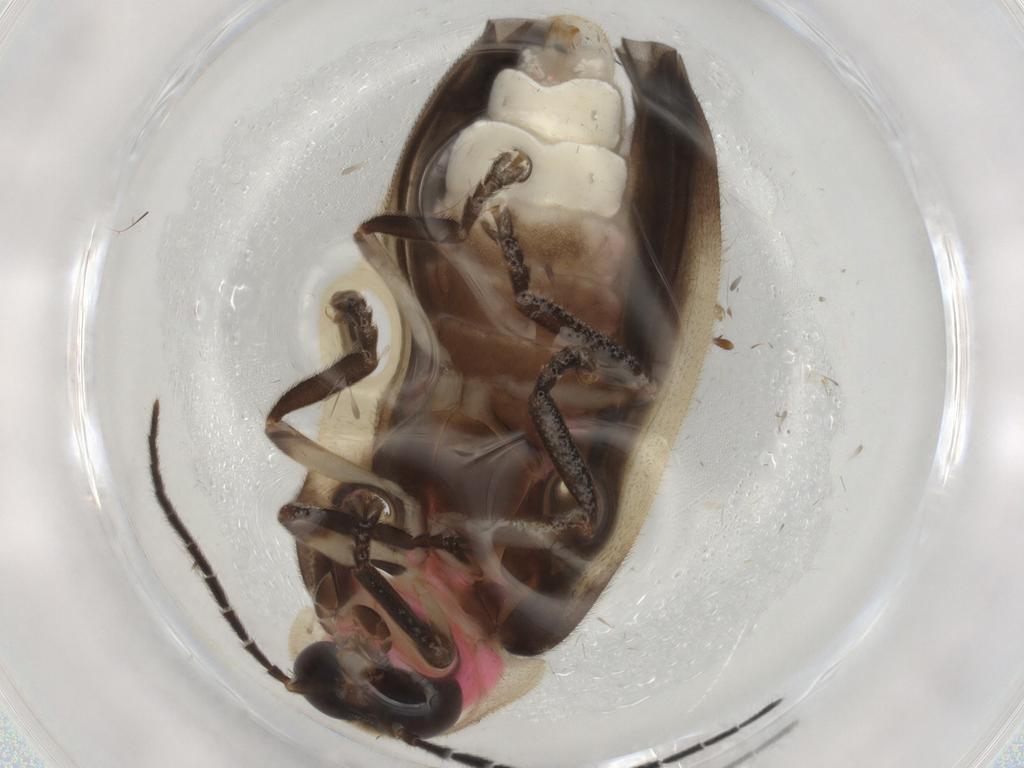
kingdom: Animalia
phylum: Arthropoda
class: Insecta
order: Coleoptera
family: Lampyridae
